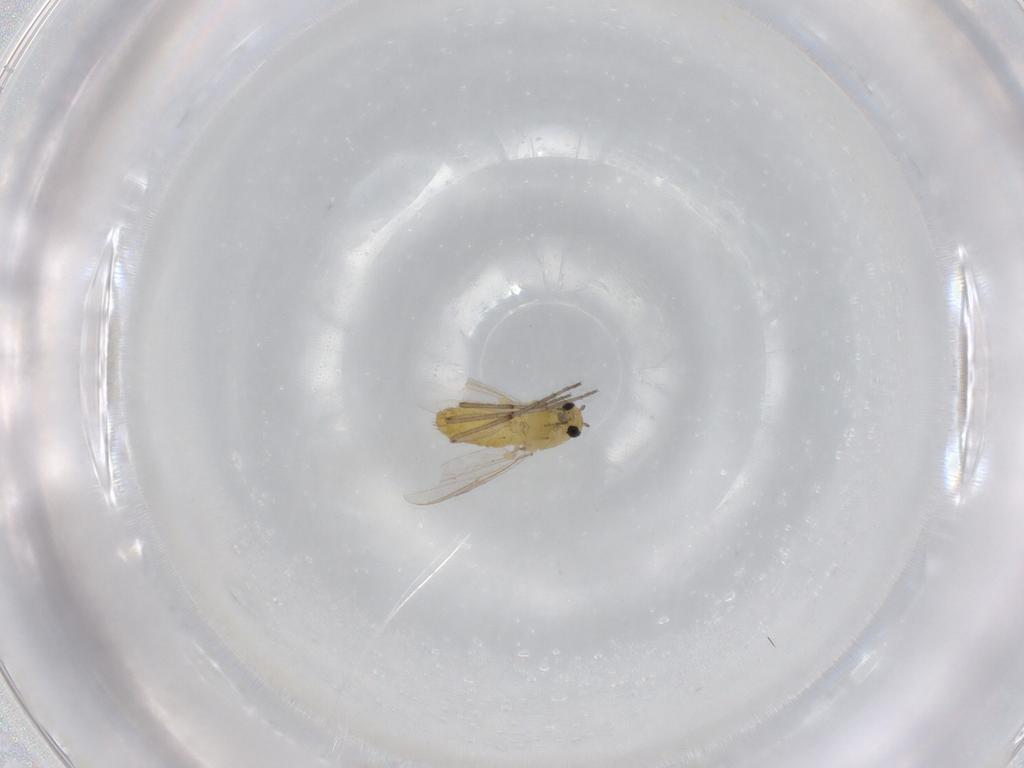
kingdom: Animalia
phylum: Arthropoda
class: Insecta
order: Diptera
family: Chironomidae
